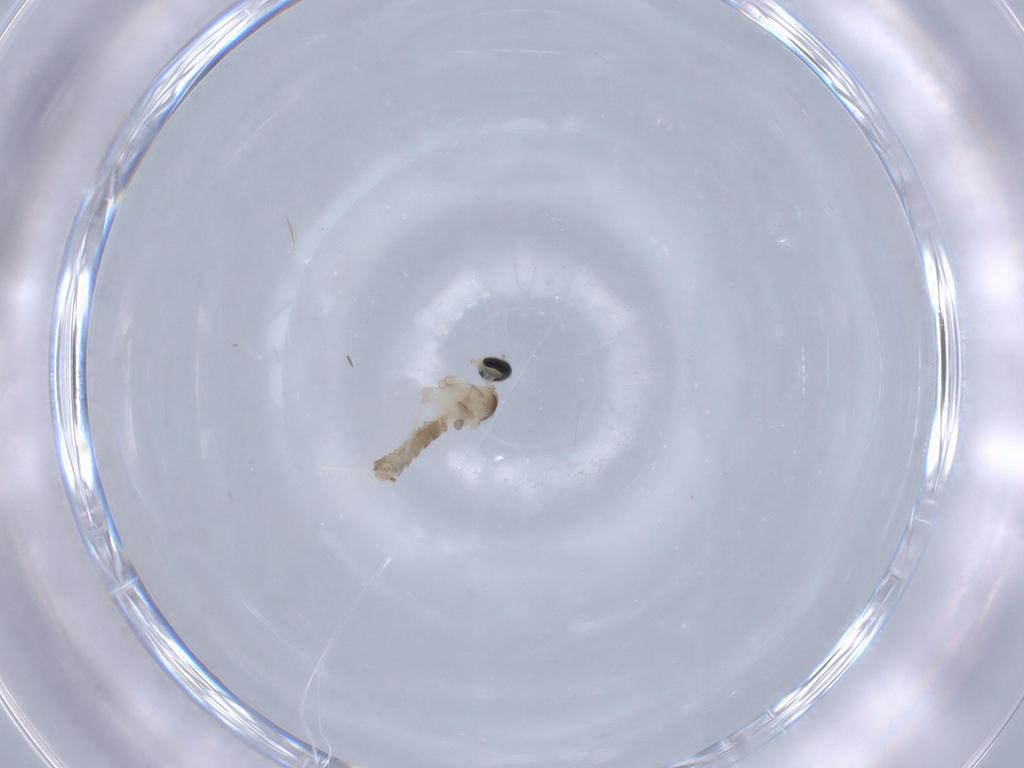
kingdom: Animalia
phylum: Arthropoda
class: Insecta
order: Diptera
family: Cecidomyiidae
